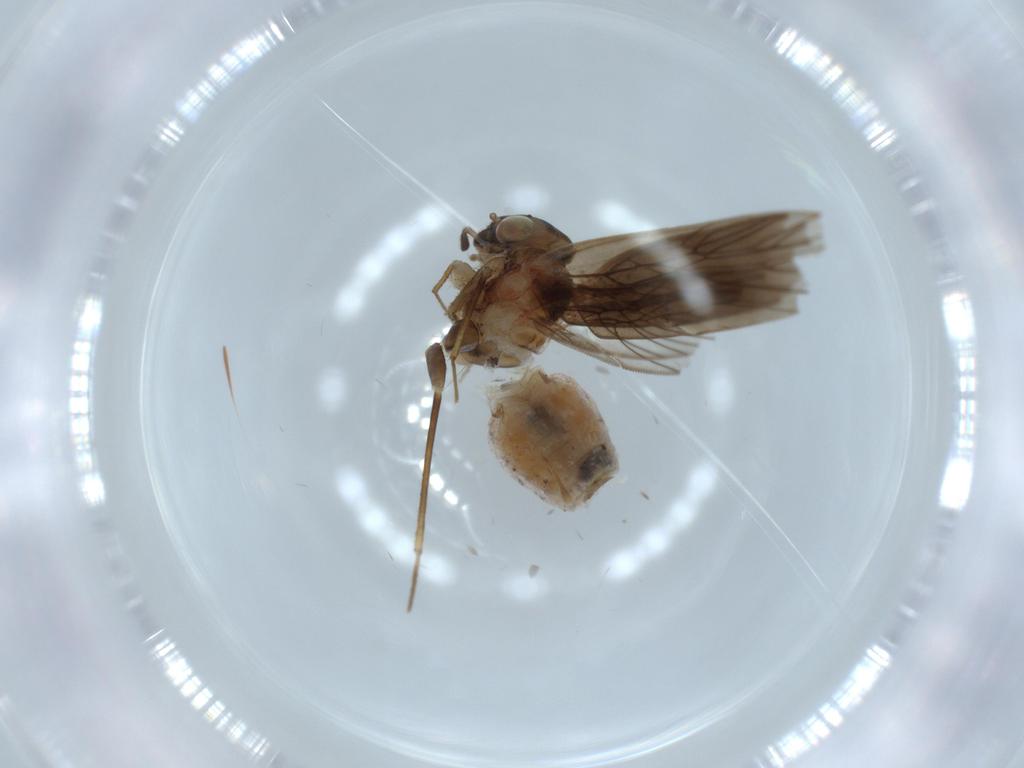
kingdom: Animalia
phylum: Arthropoda
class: Insecta
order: Psocodea
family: Lepidopsocidae
